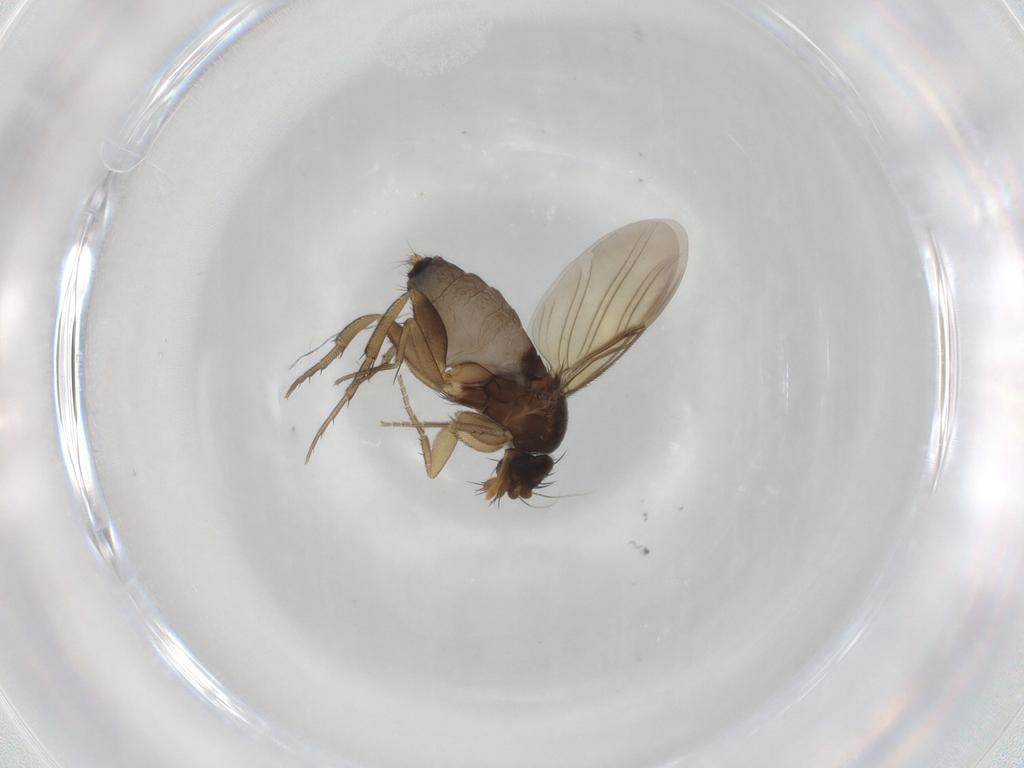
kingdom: Animalia
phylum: Arthropoda
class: Insecta
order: Diptera
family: Phoridae
